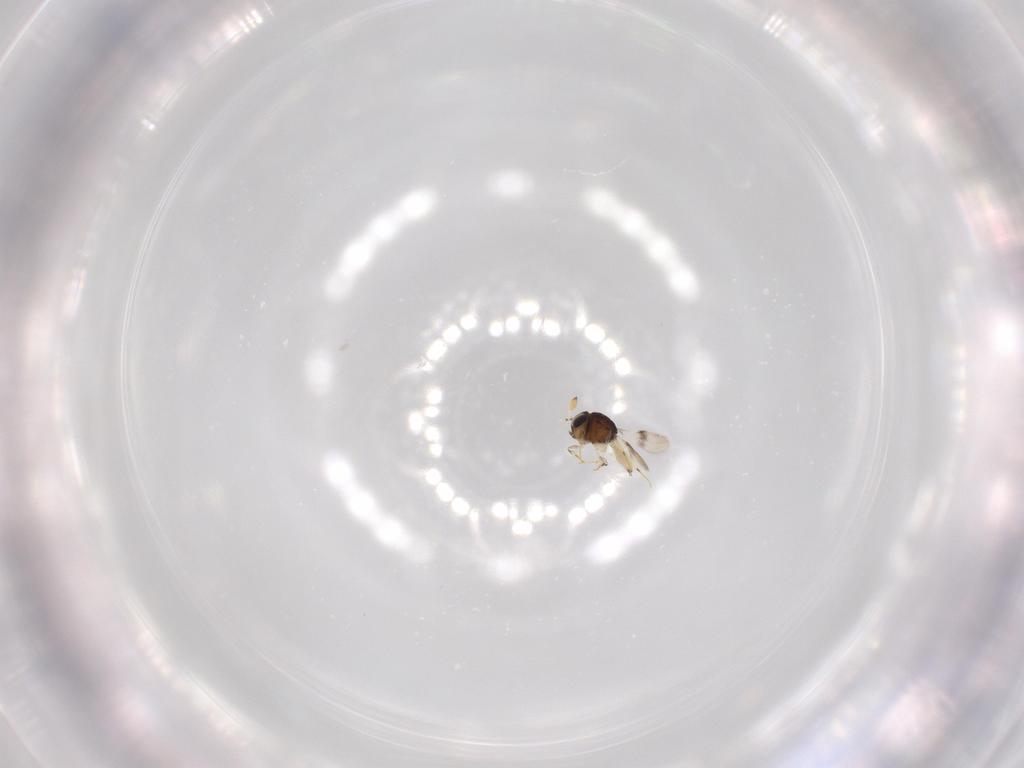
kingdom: Animalia
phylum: Arthropoda
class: Insecta
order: Hymenoptera
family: Scelionidae
